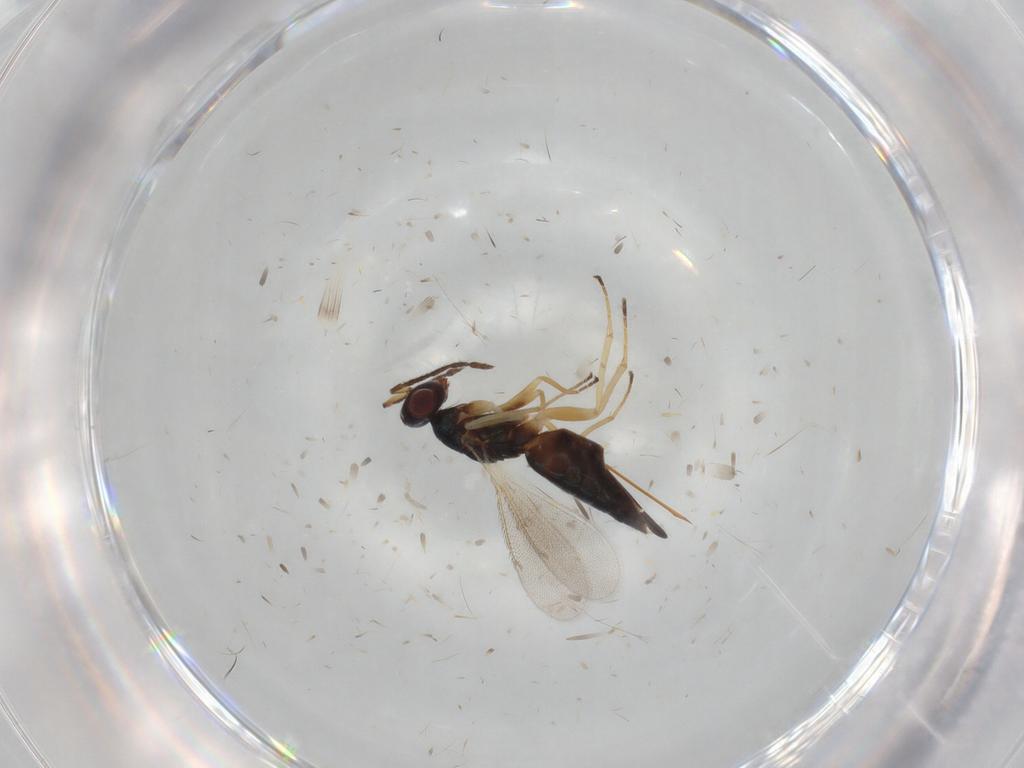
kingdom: Animalia
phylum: Arthropoda
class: Insecta
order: Hymenoptera
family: Eulophidae
